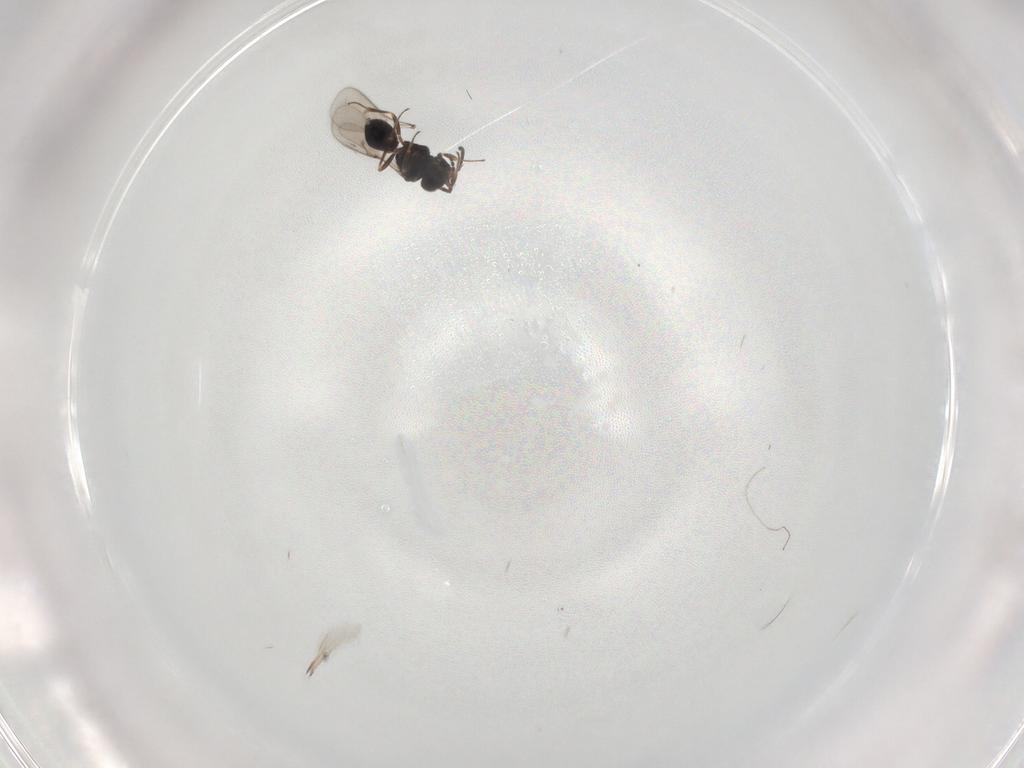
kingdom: Animalia
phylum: Arthropoda
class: Insecta
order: Hymenoptera
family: Scelionidae
